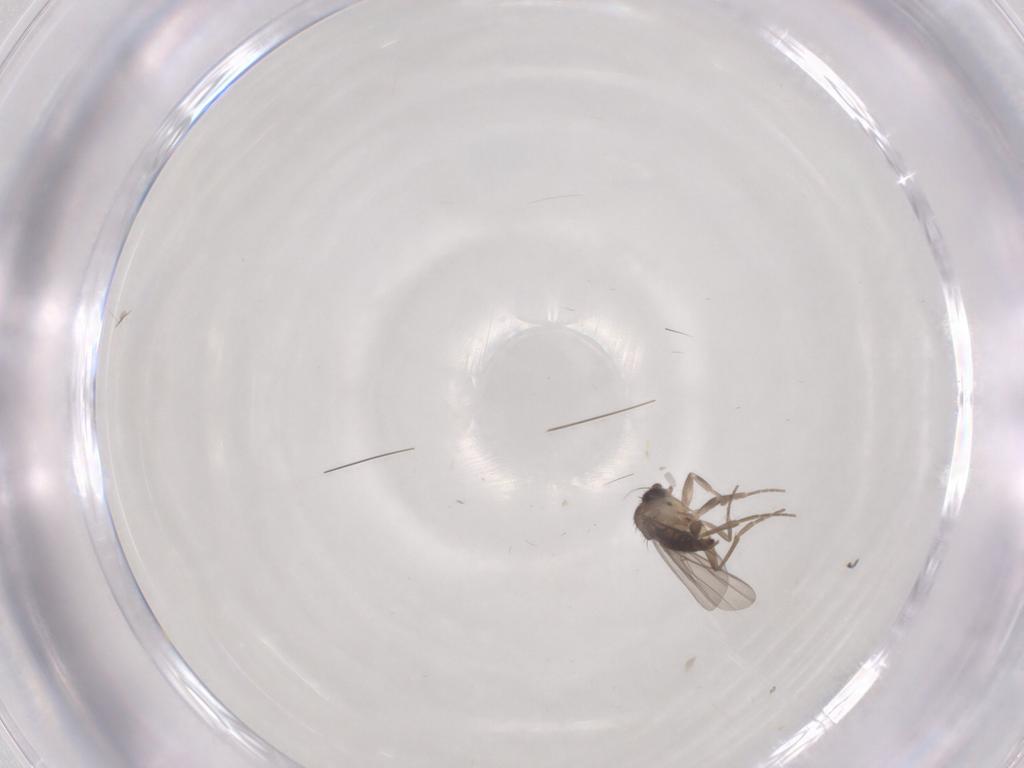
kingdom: Animalia
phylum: Arthropoda
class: Insecta
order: Diptera
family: Phoridae
